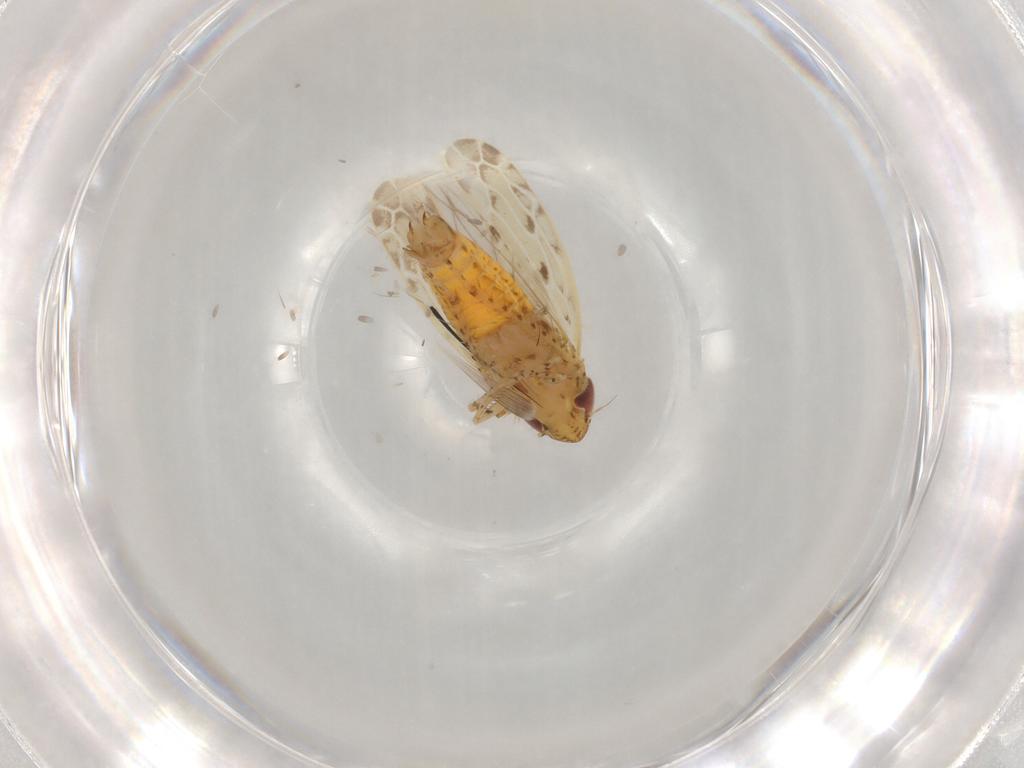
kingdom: Animalia
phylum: Arthropoda
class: Insecta
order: Hemiptera
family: Cicadellidae
